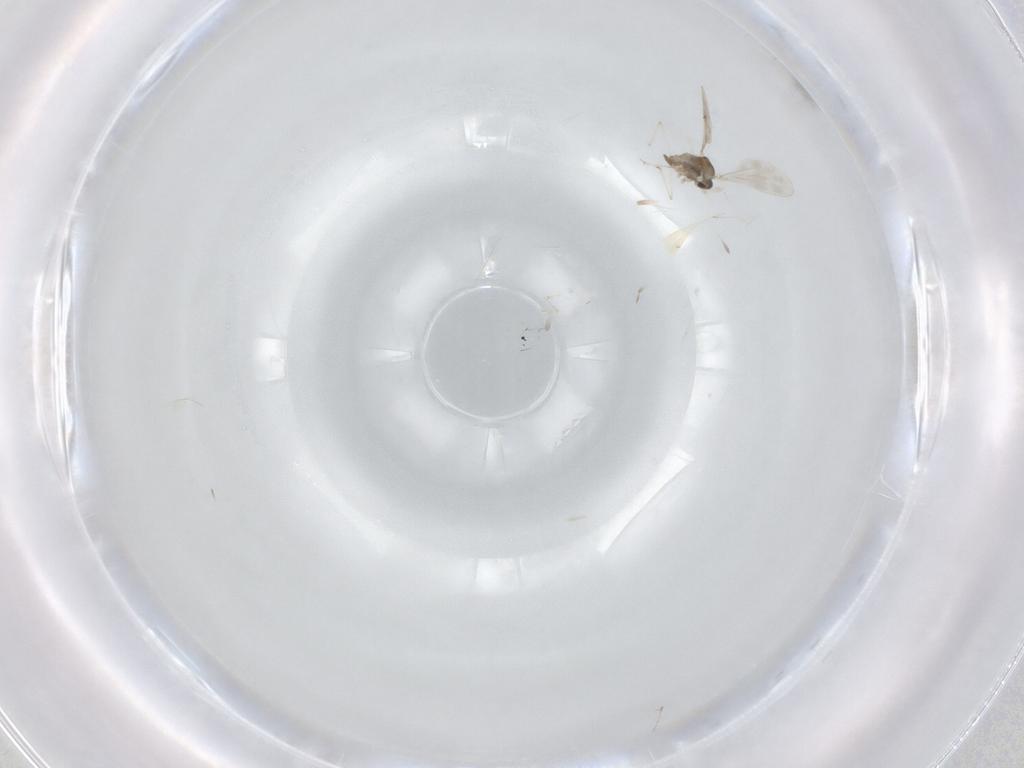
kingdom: Animalia
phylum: Arthropoda
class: Insecta
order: Diptera
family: Cecidomyiidae
